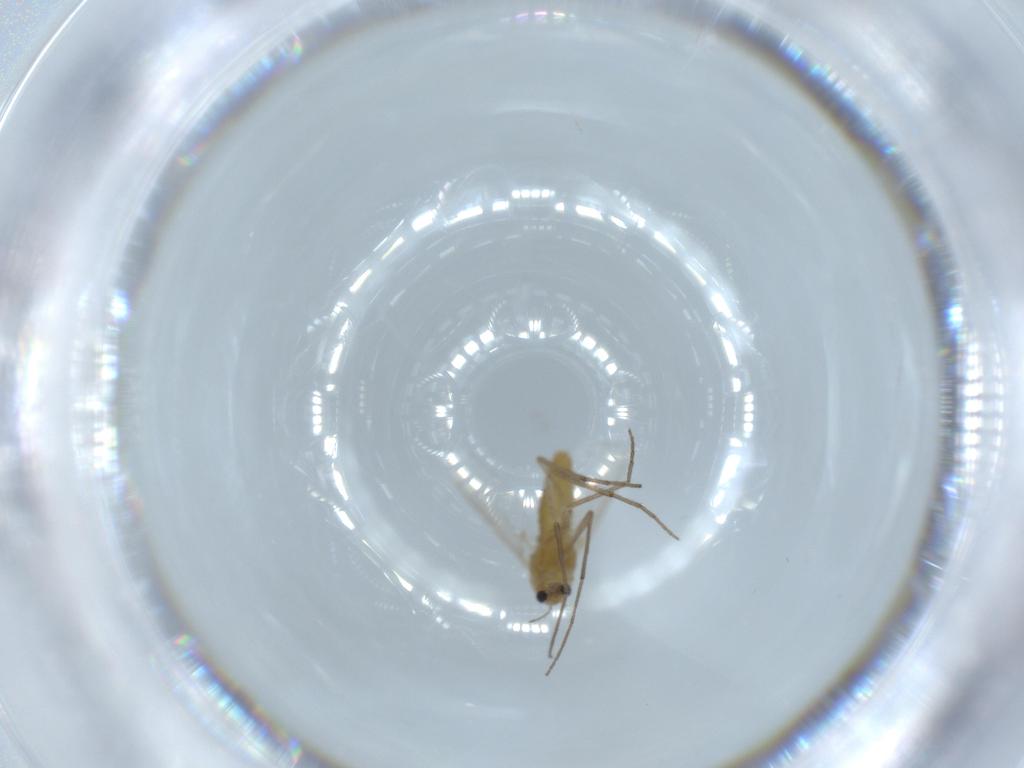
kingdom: Animalia
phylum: Arthropoda
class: Insecta
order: Diptera
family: Chironomidae
